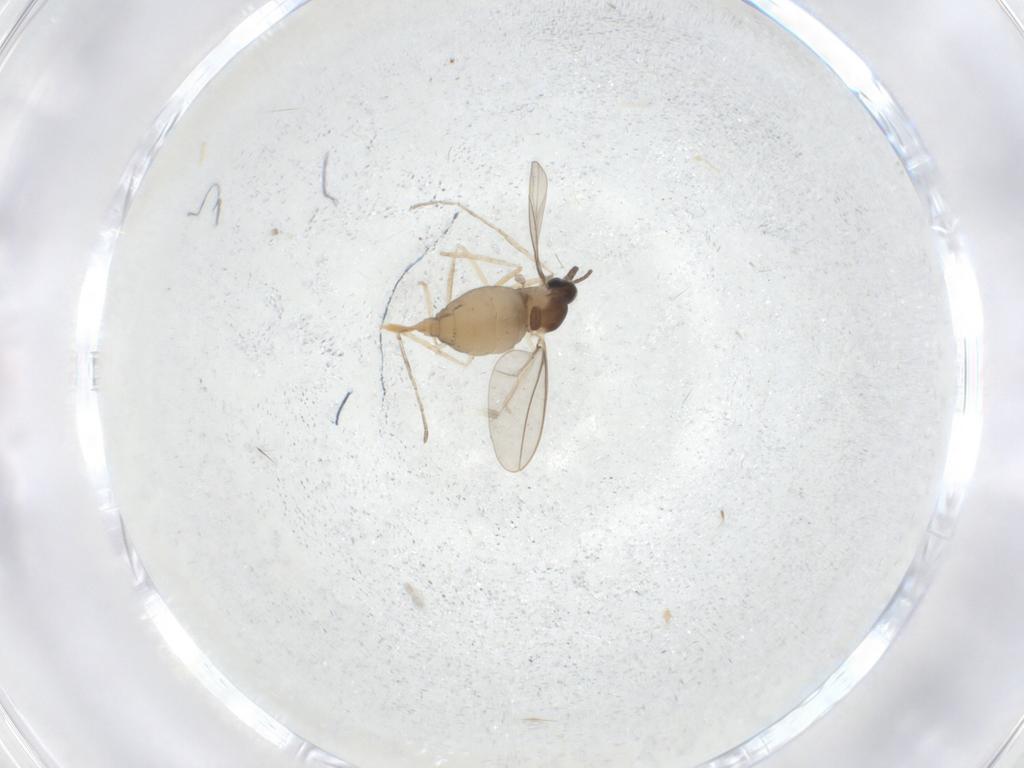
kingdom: Animalia
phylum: Arthropoda
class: Insecta
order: Diptera
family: Cecidomyiidae
